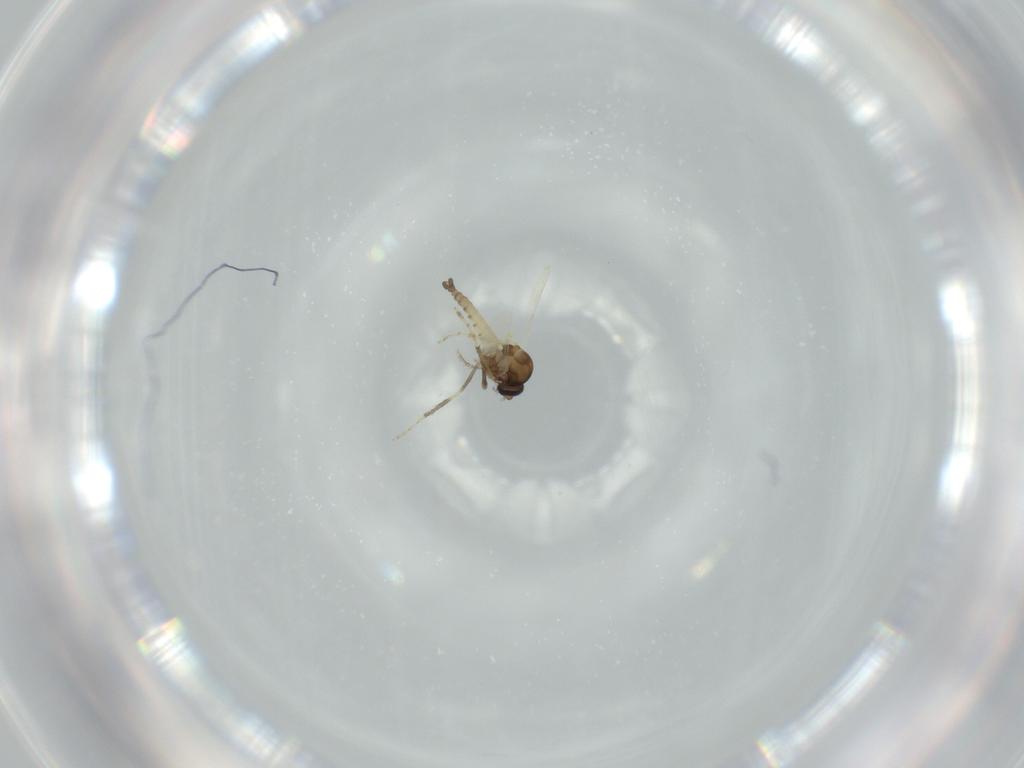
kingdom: Animalia
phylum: Arthropoda
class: Insecta
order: Diptera
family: Ceratopogonidae
